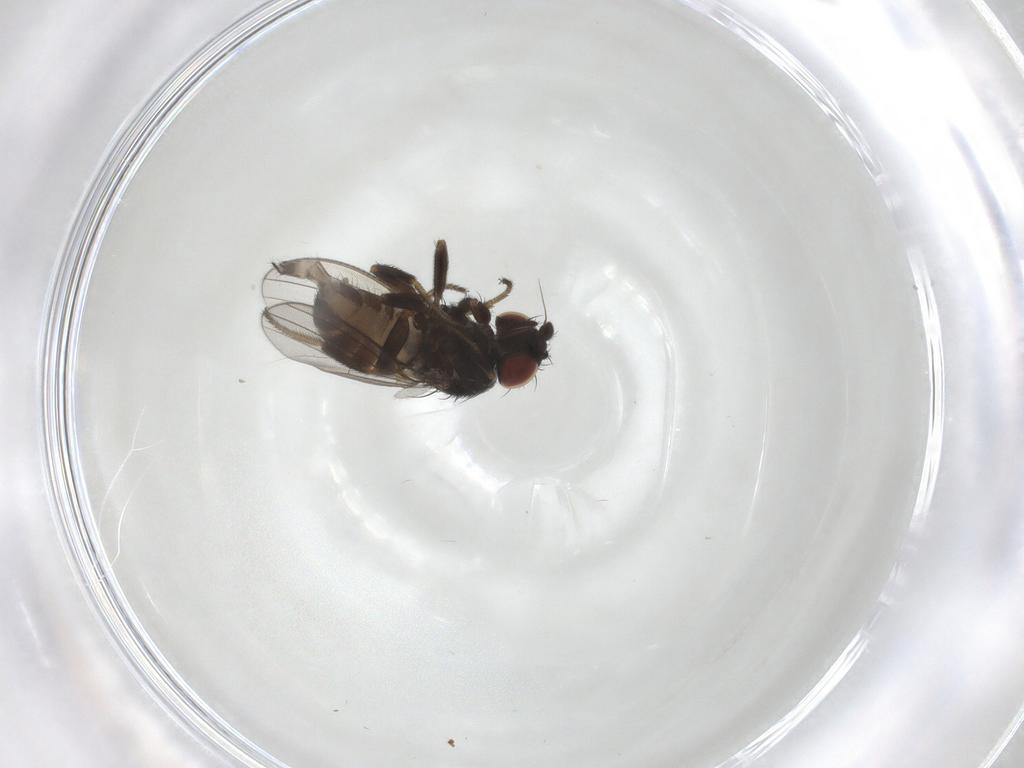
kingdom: Animalia
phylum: Arthropoda
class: Insecta
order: Diptera
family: Milichiidae
